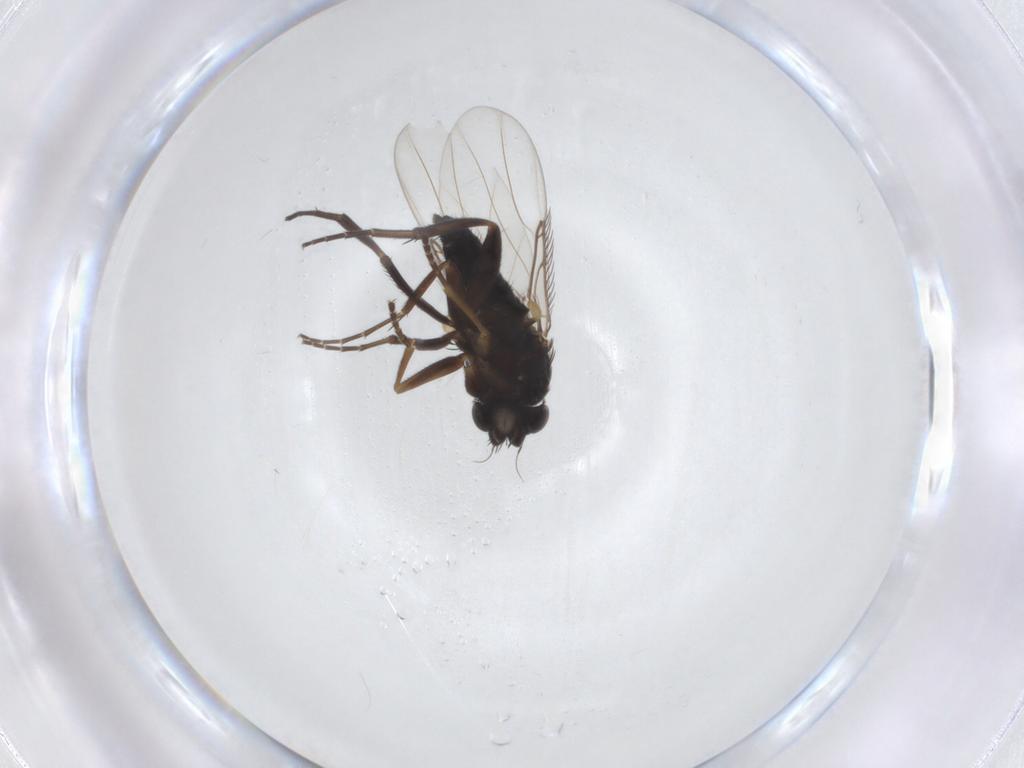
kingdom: Animalia
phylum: Arthropoda
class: Insecta
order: Diptera
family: Phoridae
